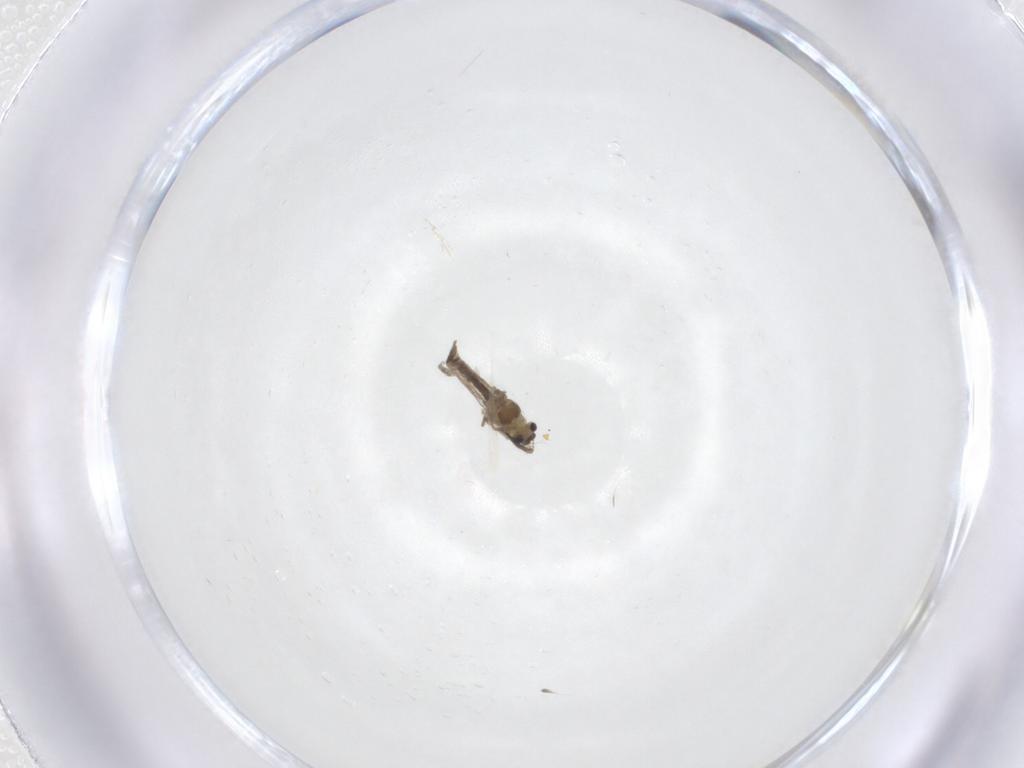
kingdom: Animalia
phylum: Arthropoda
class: Insecta
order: Diptera
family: Chironomidae
